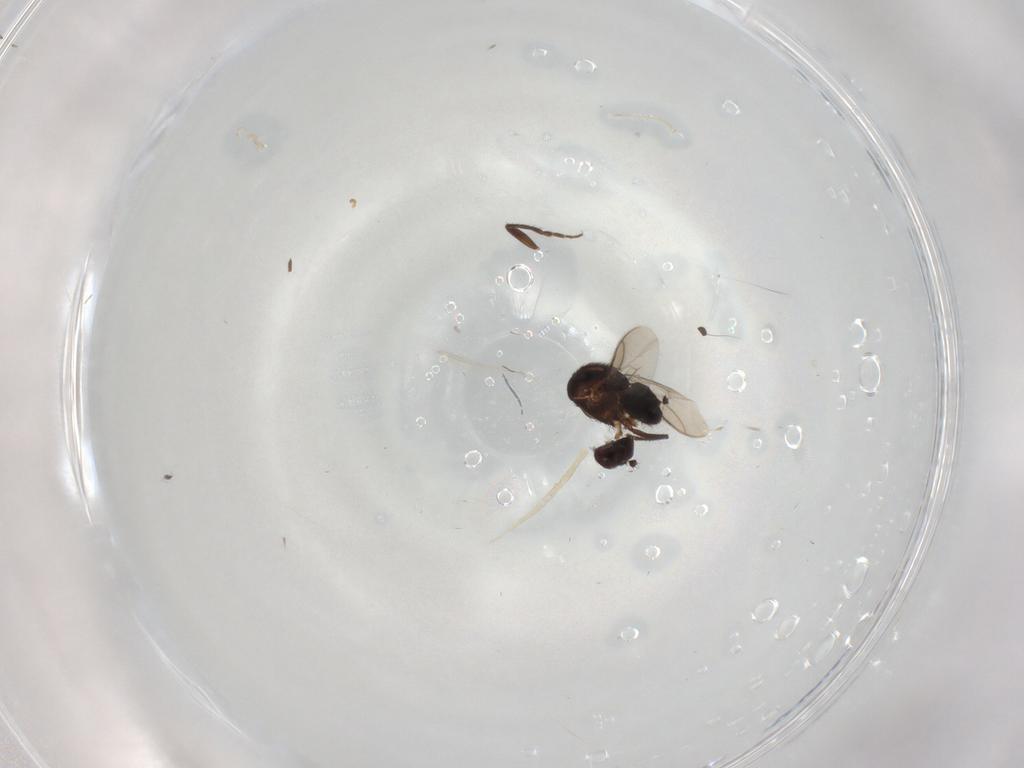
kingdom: Animalia
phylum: Arthropoda
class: Insecta
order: Diptera
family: Sphaeroceridae
